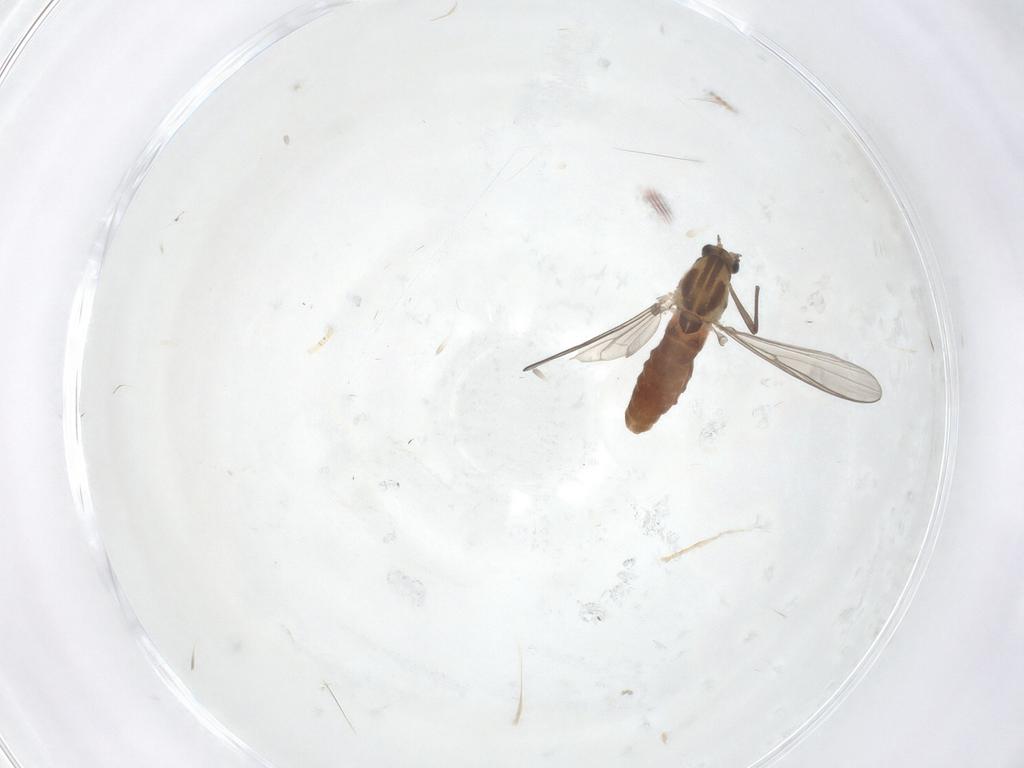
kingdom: Animalia
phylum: Arthropoda
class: Insecta
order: Diptera
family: Chironomidae
